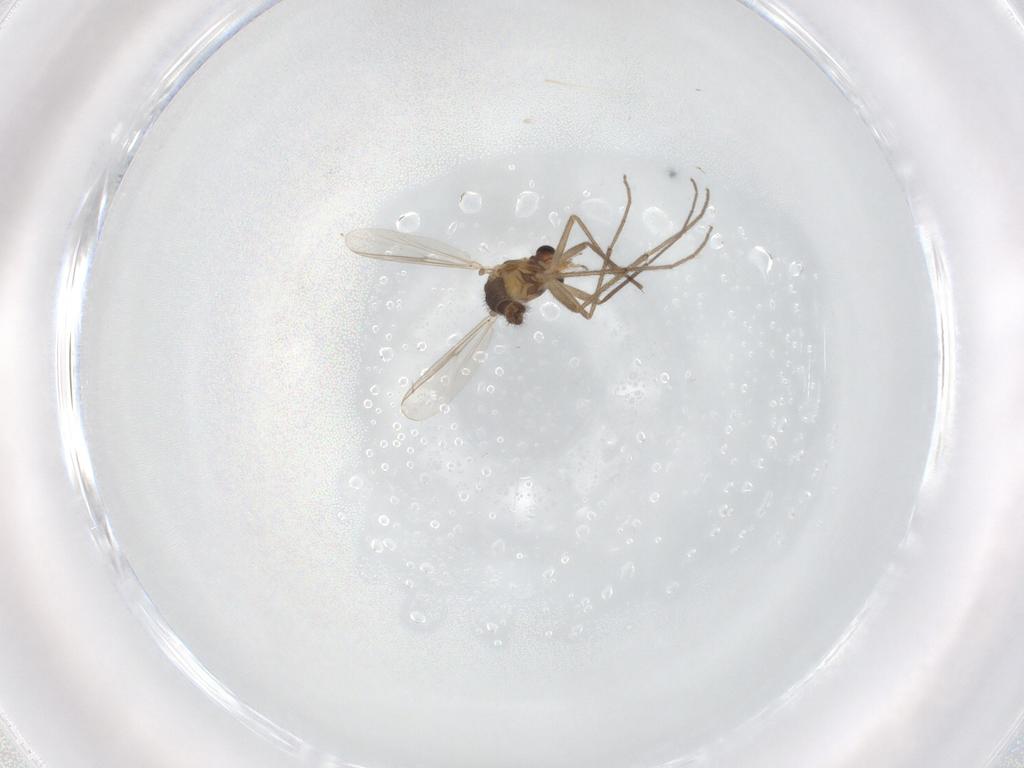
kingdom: Animalia
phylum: Arthropoda
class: Insecta
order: Diptera
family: Chironomidae
